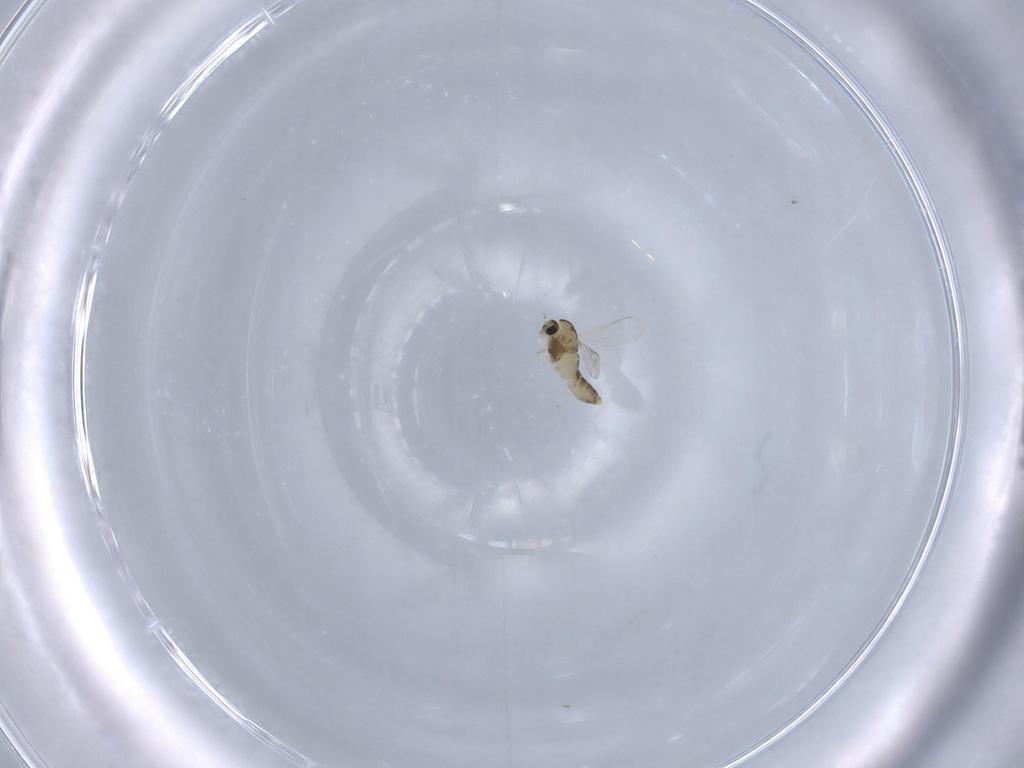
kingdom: Animalia
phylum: Arthropoda
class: Insecta
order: Diptera
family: Chironomidae
